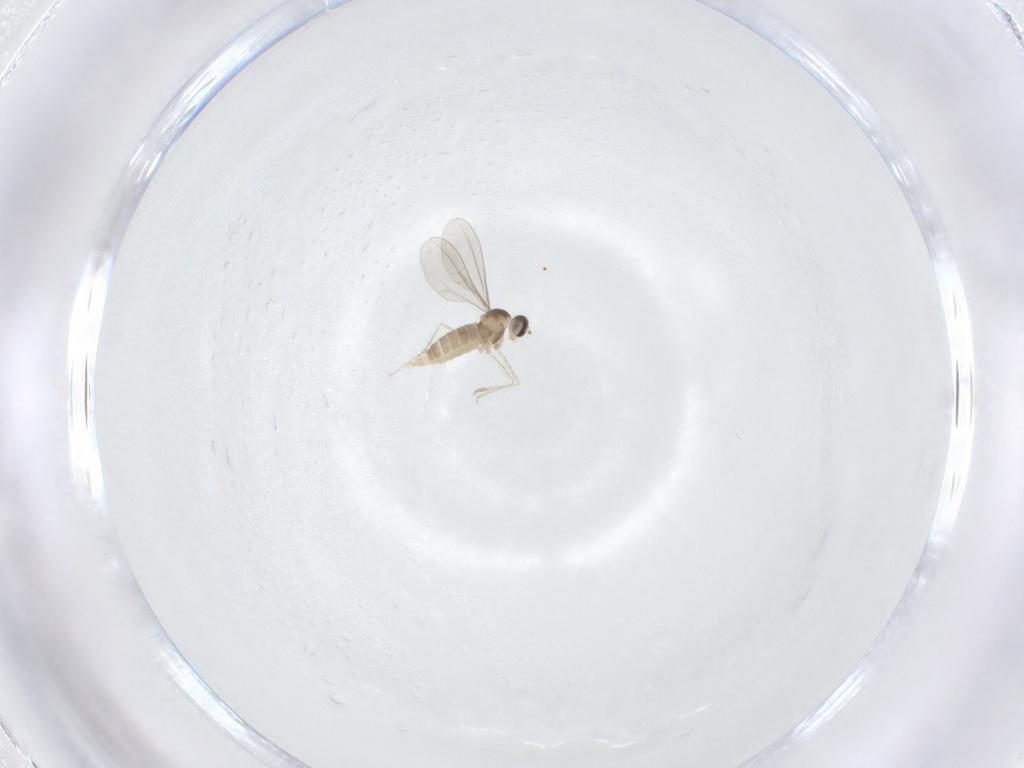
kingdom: Animalia
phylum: Arthropoda
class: Insecta
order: Diptera
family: Cecidomyiidae
